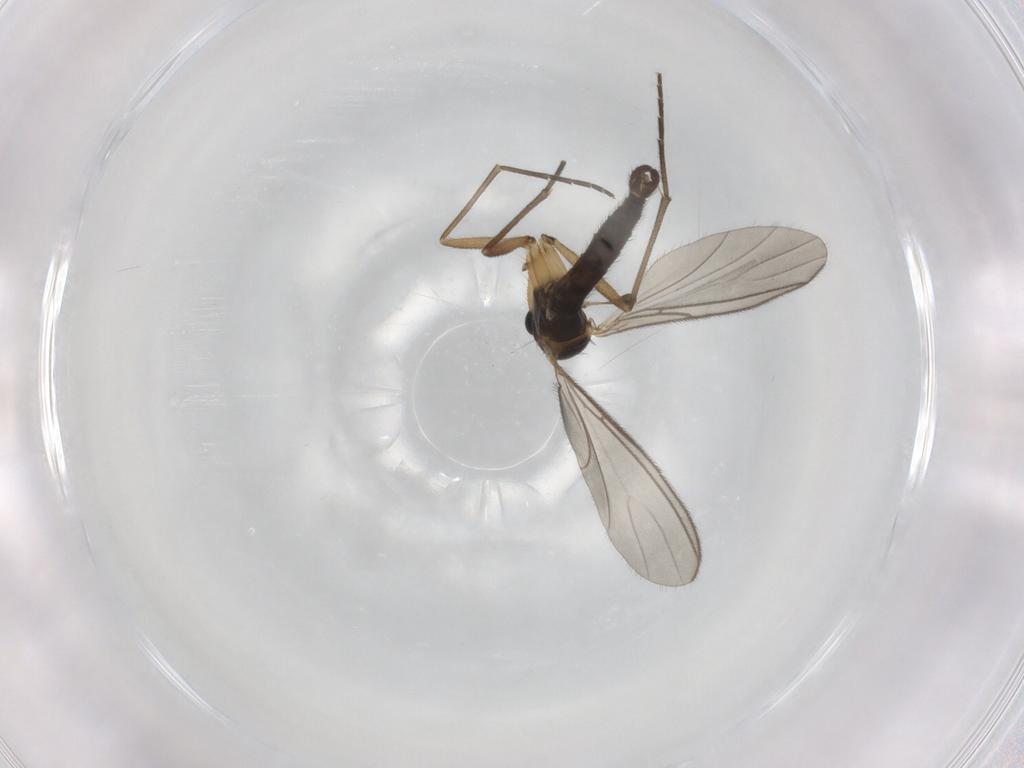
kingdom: Animalia
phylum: Arthropoda
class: Insecta
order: Diptera
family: Sciaridae
